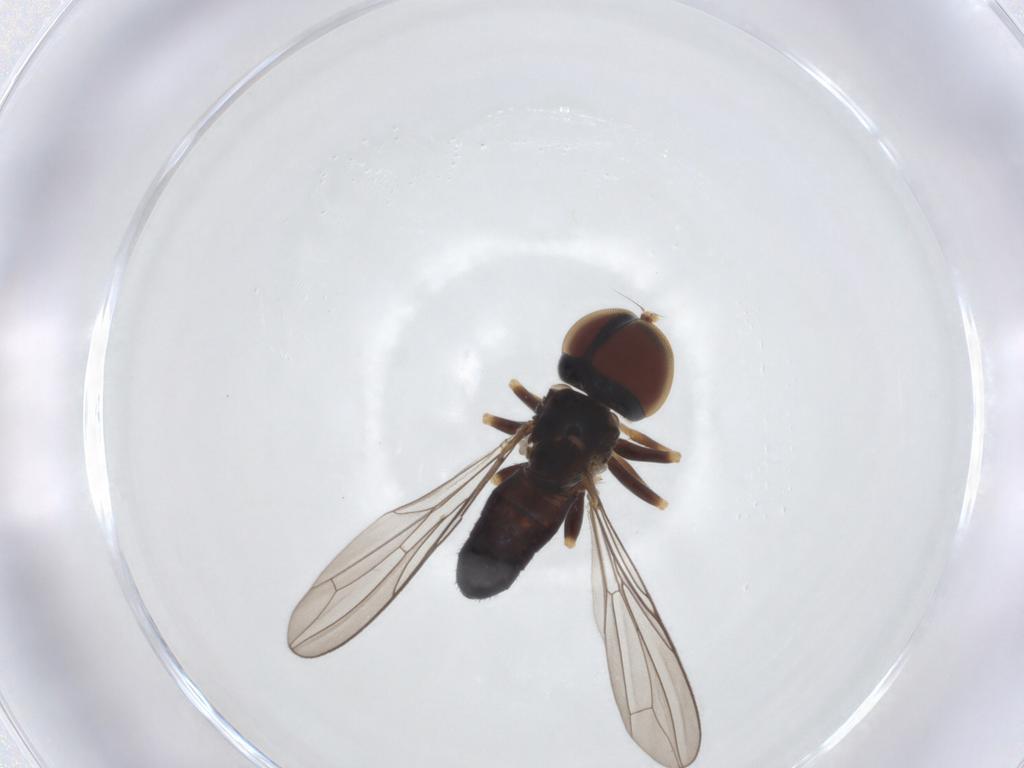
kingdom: Animalia
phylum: Arthropoda
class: Insecta
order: Diptera
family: Pipunculidae
